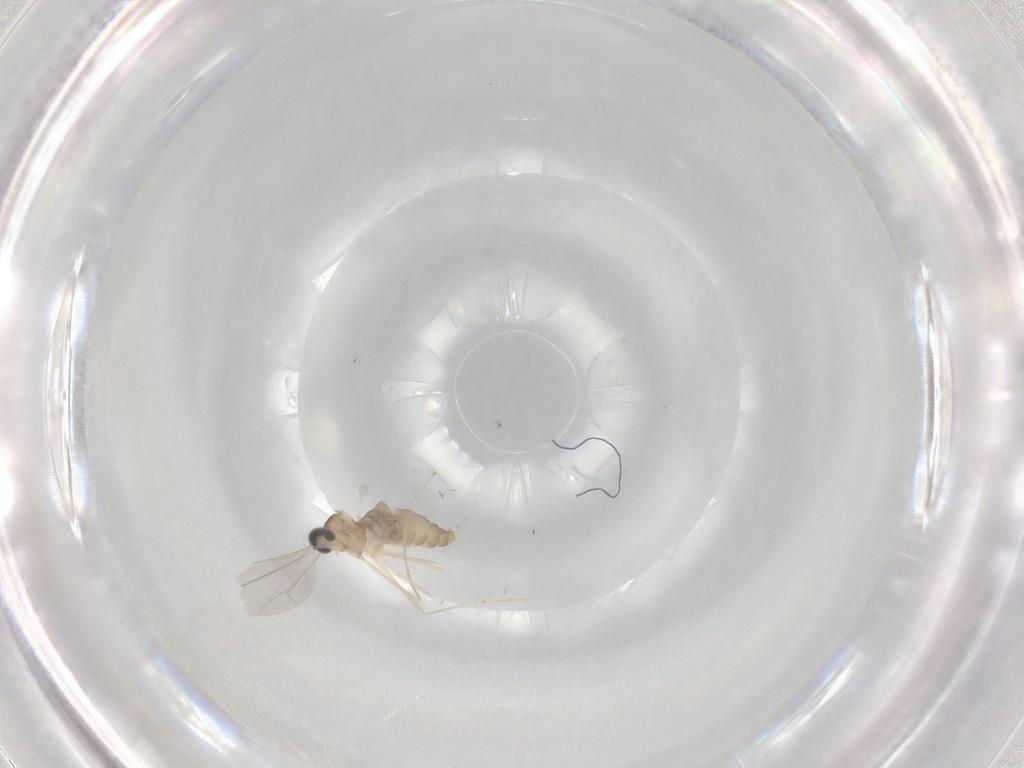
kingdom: Animalia
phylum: Arthropoda
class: Insecta
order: Diptera
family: Cecidomyiidae
